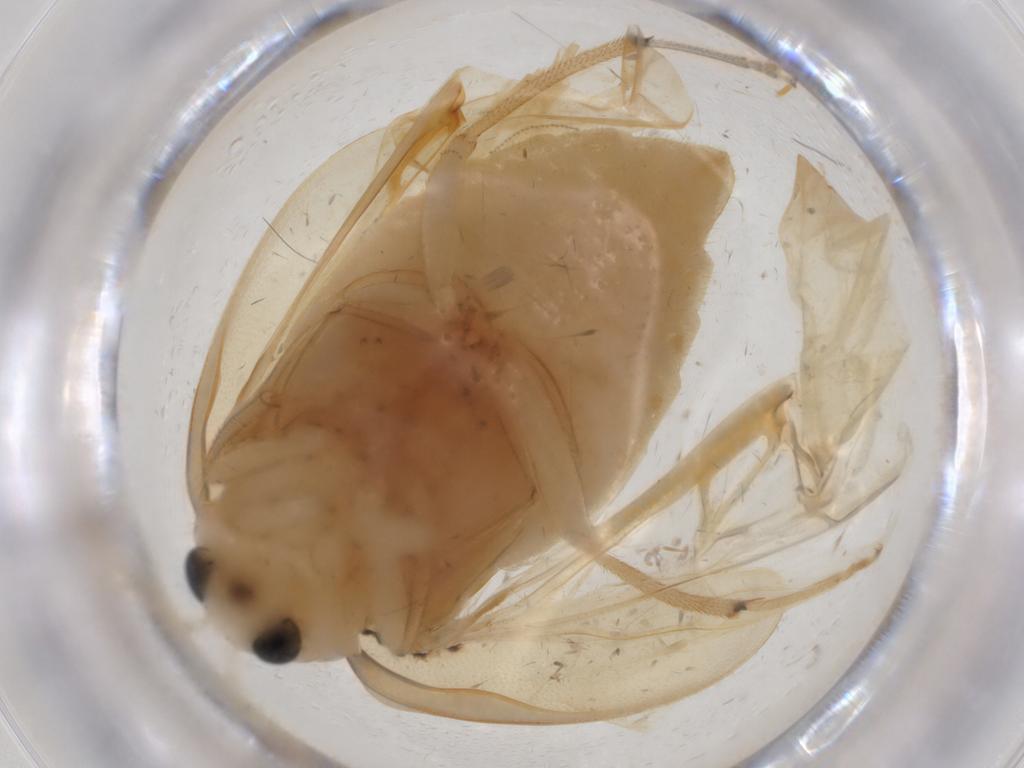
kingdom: Animalia
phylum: Arthropoda
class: Insecta
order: Coleoptera
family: Chrysomelidae
